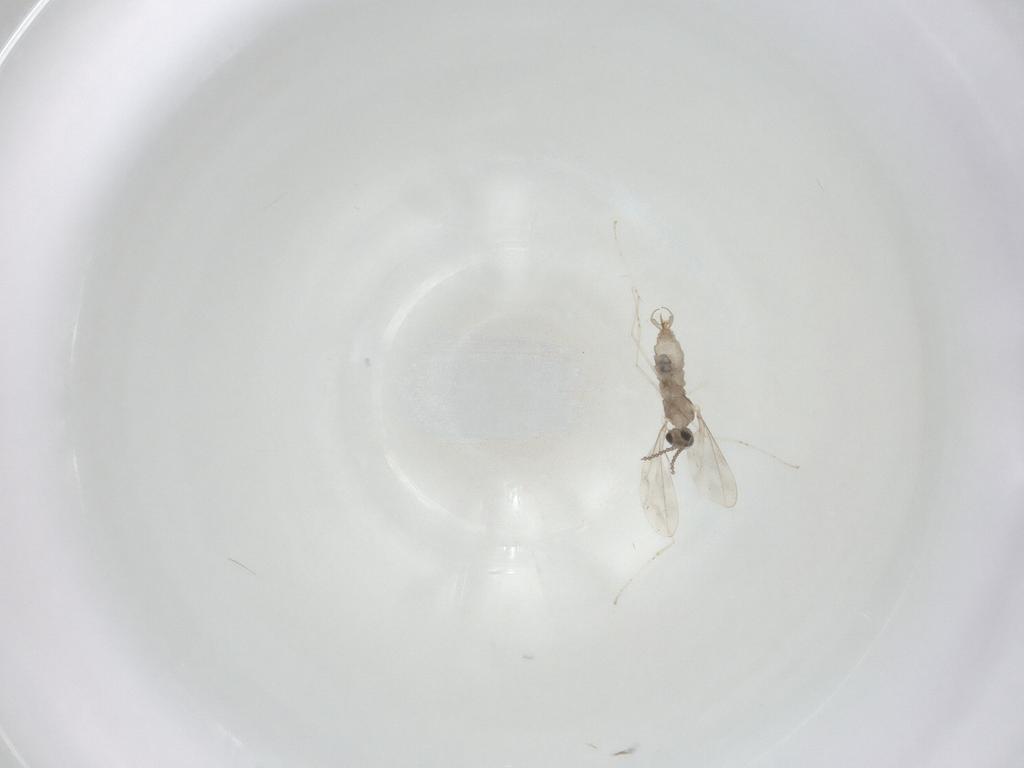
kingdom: Animalia
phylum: Arthropoda
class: Insecta
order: Diptera
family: Cecidomyiidae
